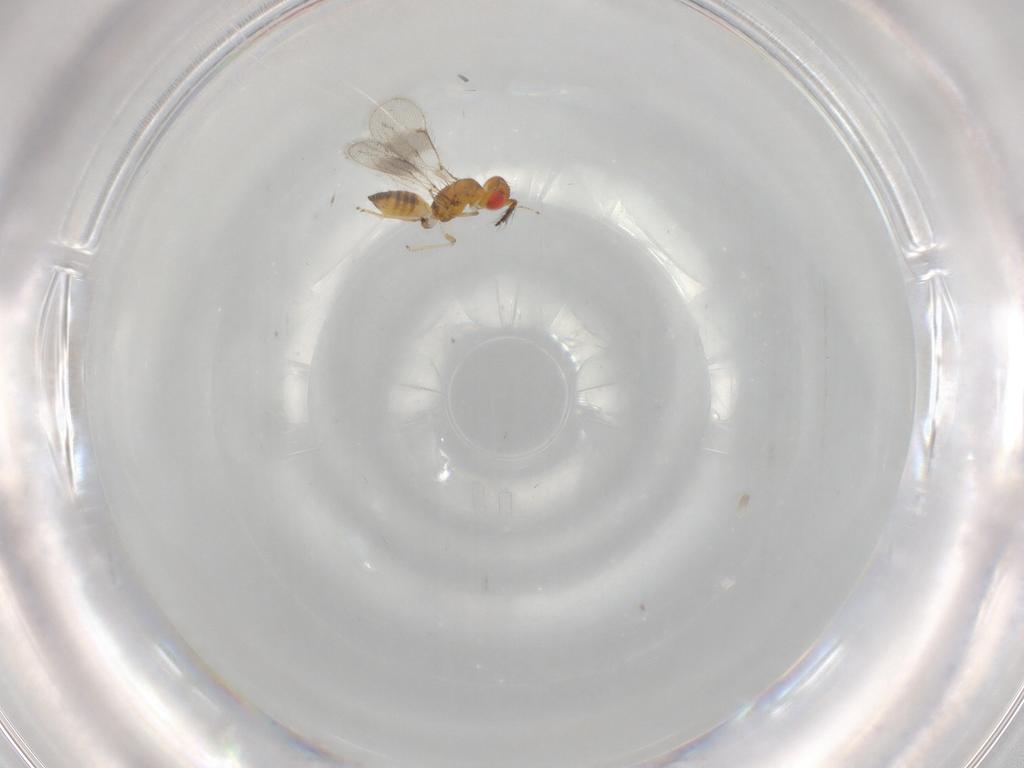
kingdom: Animalia
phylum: Arthropoda
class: Insecta
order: Hymenoptera
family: Eulophidae
